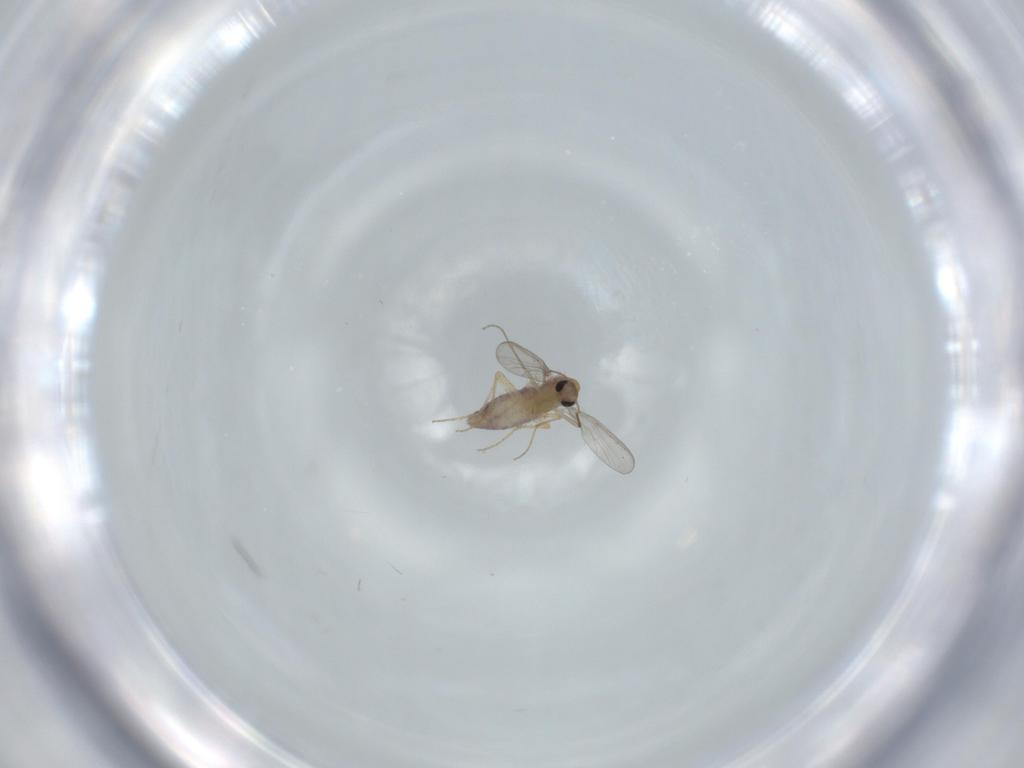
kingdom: Animalia
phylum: Arthropoda
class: Insecta
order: Diptera
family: Chironomidae
